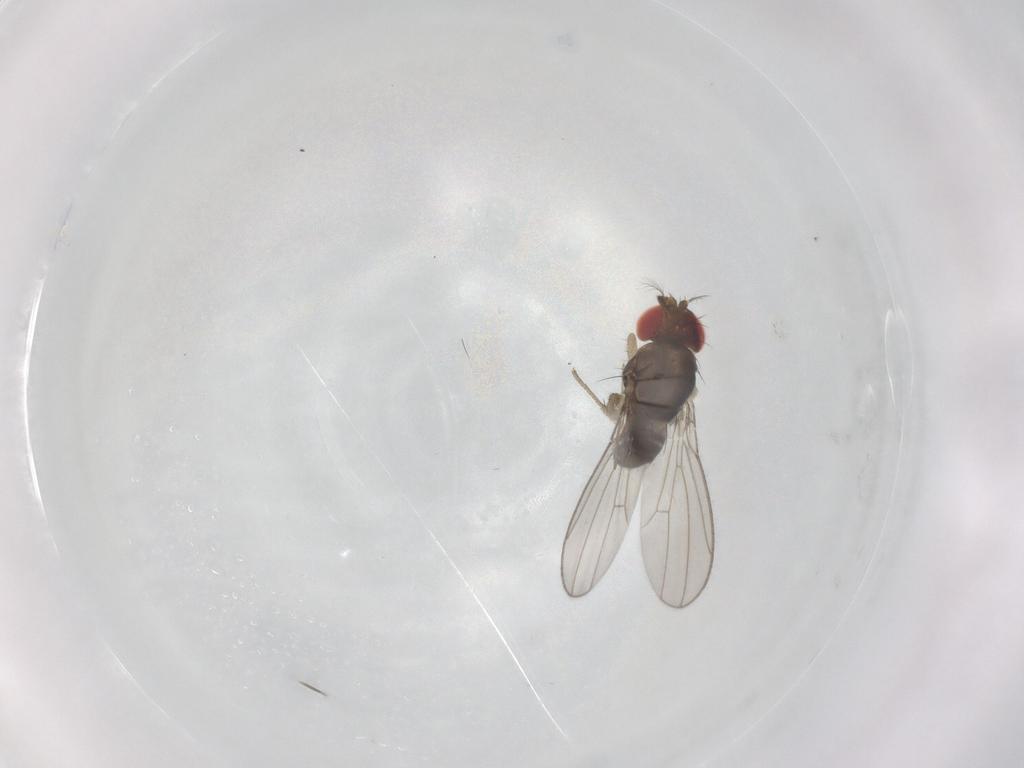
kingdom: Animalia
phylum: Arthropoda
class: Insecta
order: Diptera
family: Drosophilidae
